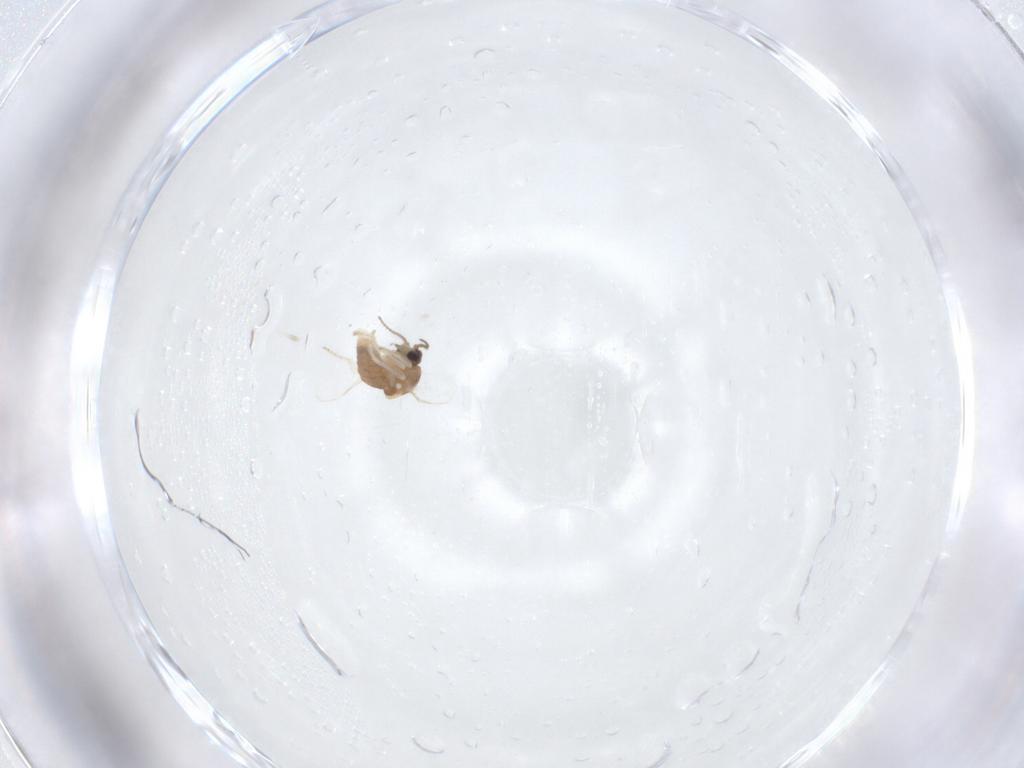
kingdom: Animalia
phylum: Arthropoda
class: Insecta
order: Diptera
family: Ceratopogonidae
